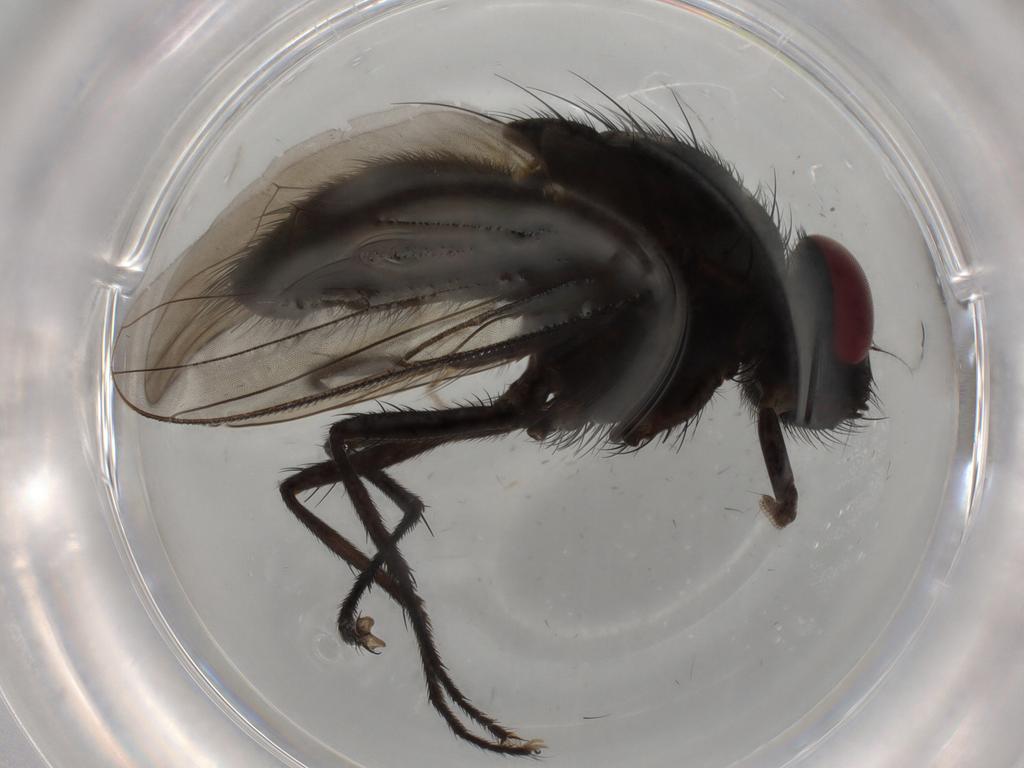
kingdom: Animalia
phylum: Arthropoda
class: Insecta
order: Diptera
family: Muscidae
